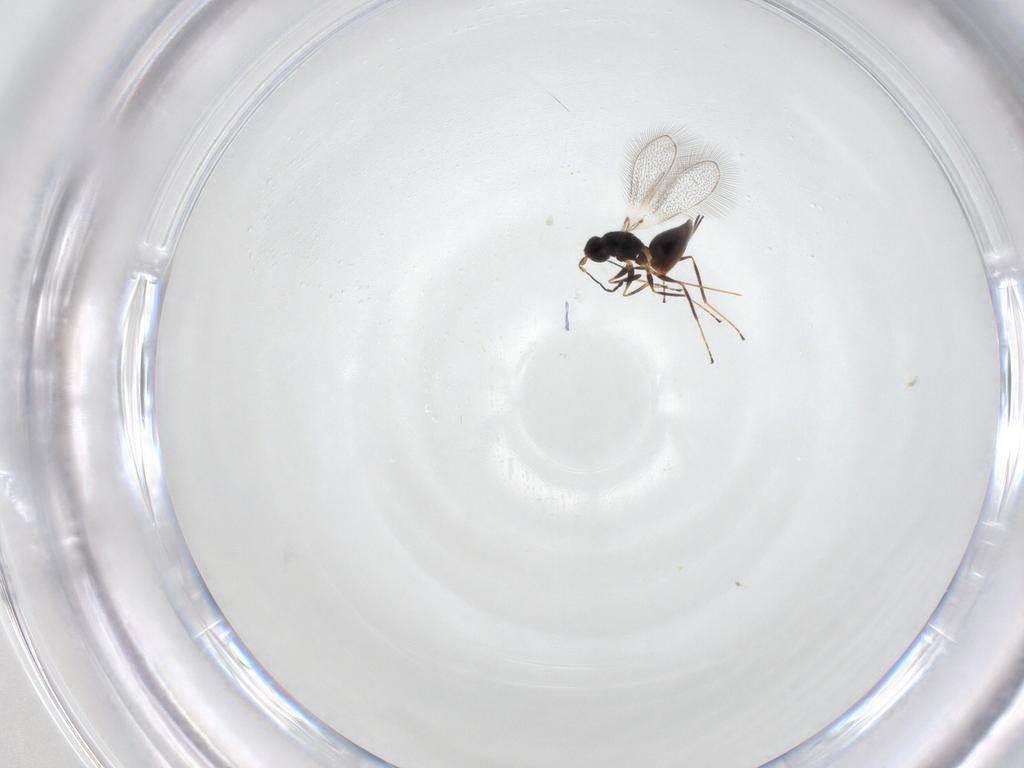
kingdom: Animalia
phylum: Arthropoda
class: Insecta
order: Hymenoptera
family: Mymaridae
